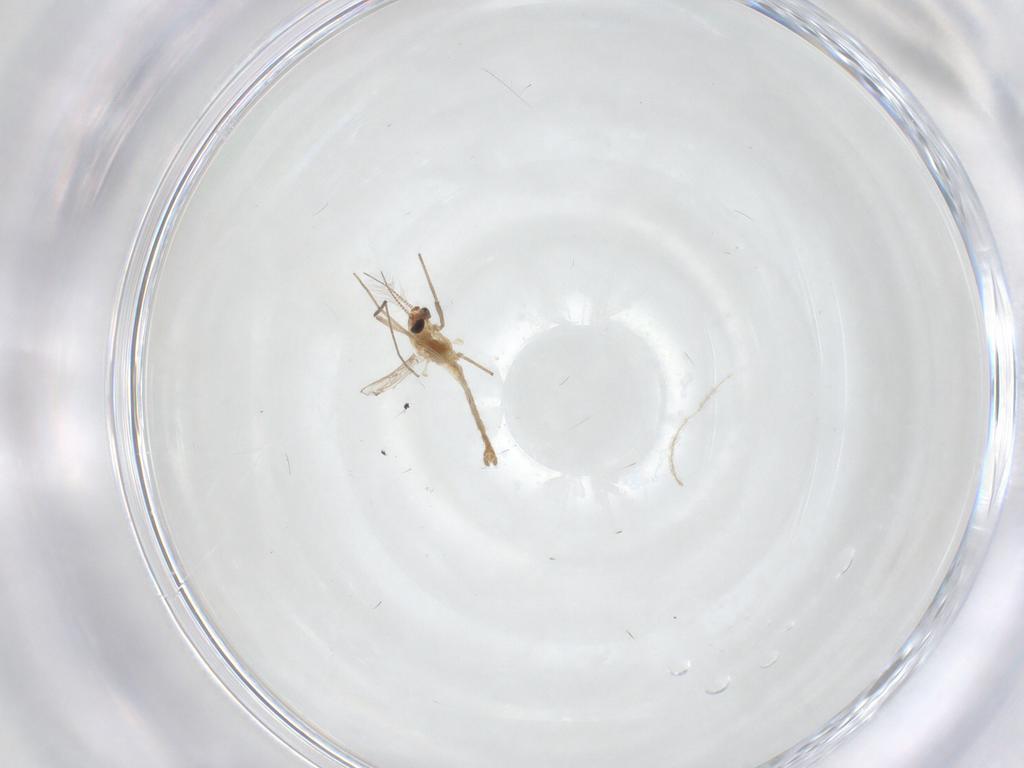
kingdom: Animalia
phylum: Arthropoda
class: Insecta
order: Diptera
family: Chironomidae
